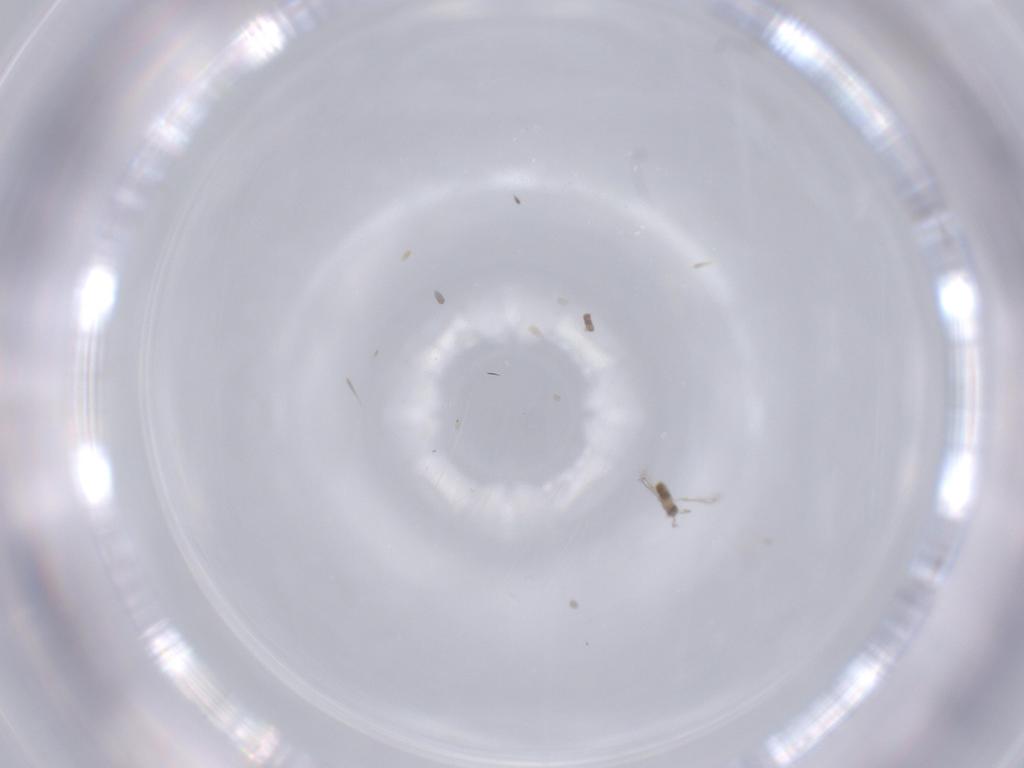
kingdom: Animalia
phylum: Arthropoda
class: Insecta
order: Hymenoptera
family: Mymaridae
